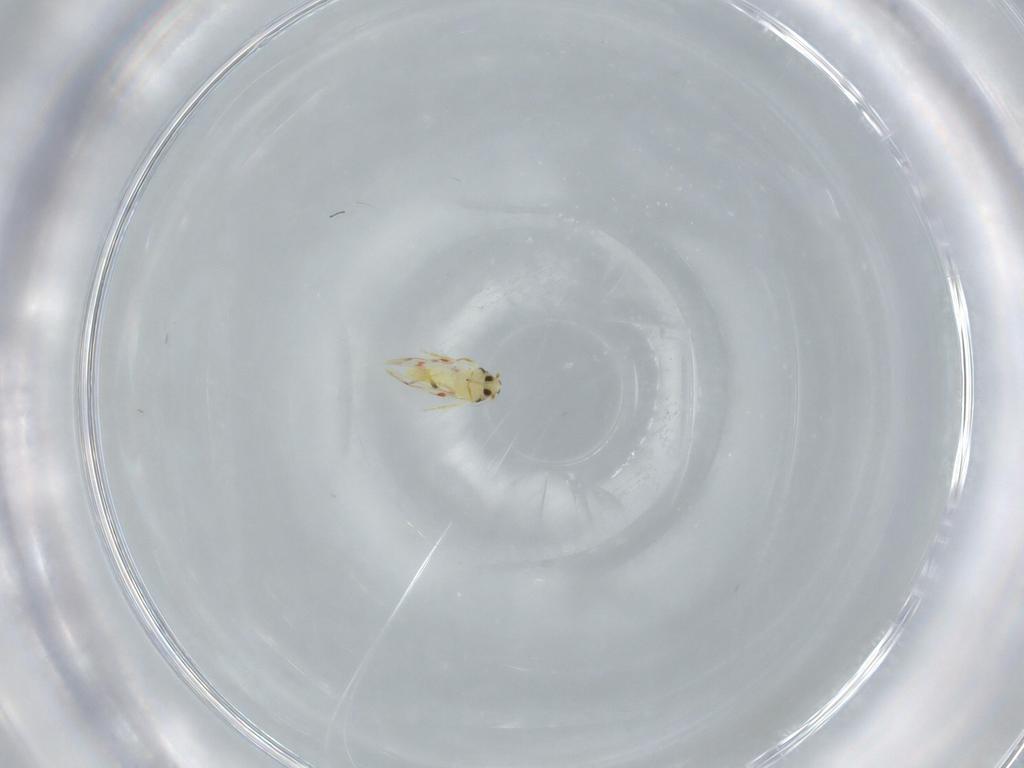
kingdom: Animalia
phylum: Arthropoda
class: Insecta
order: Hemiptera
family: Aleyrodidae
